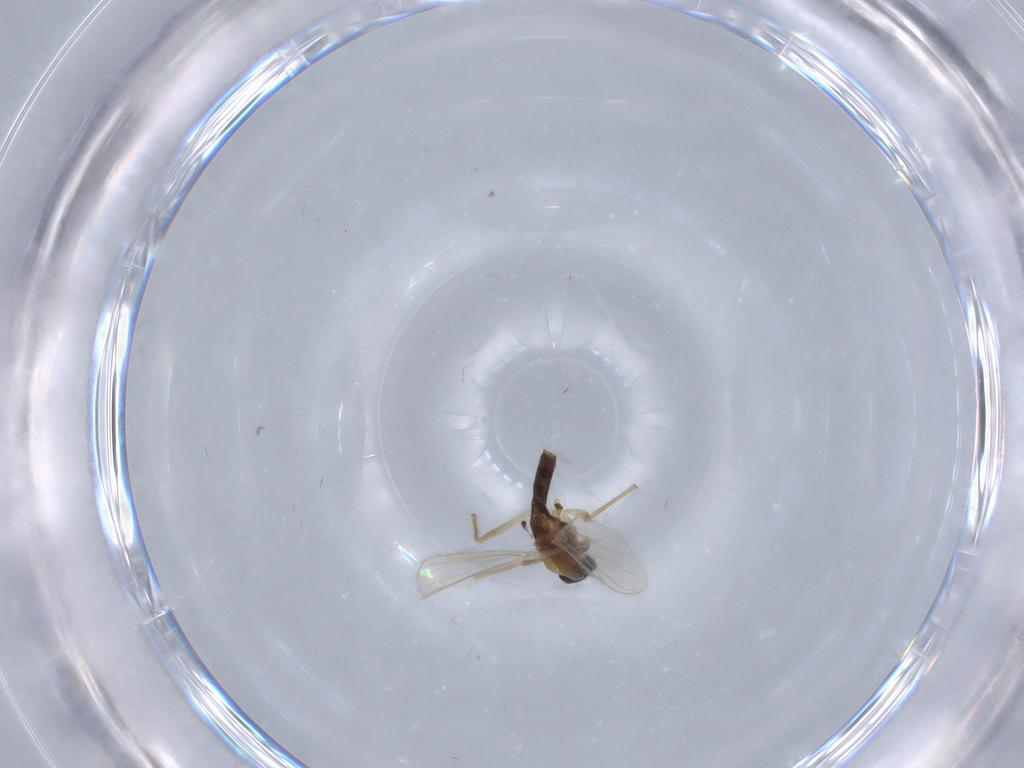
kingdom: Animalia
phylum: Arthropoda
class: Insecta
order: Diptera
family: Chironomidae
